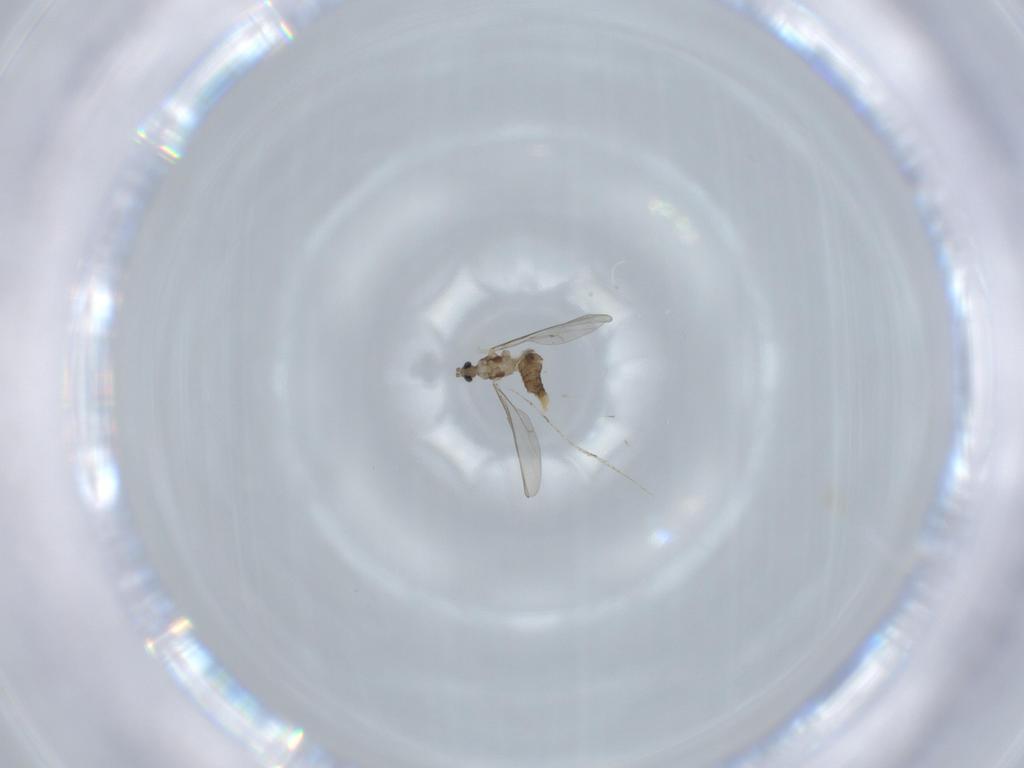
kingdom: Animalia
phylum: Arthropoda
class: Insecta
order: Diptera
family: Cecidomyiidae
